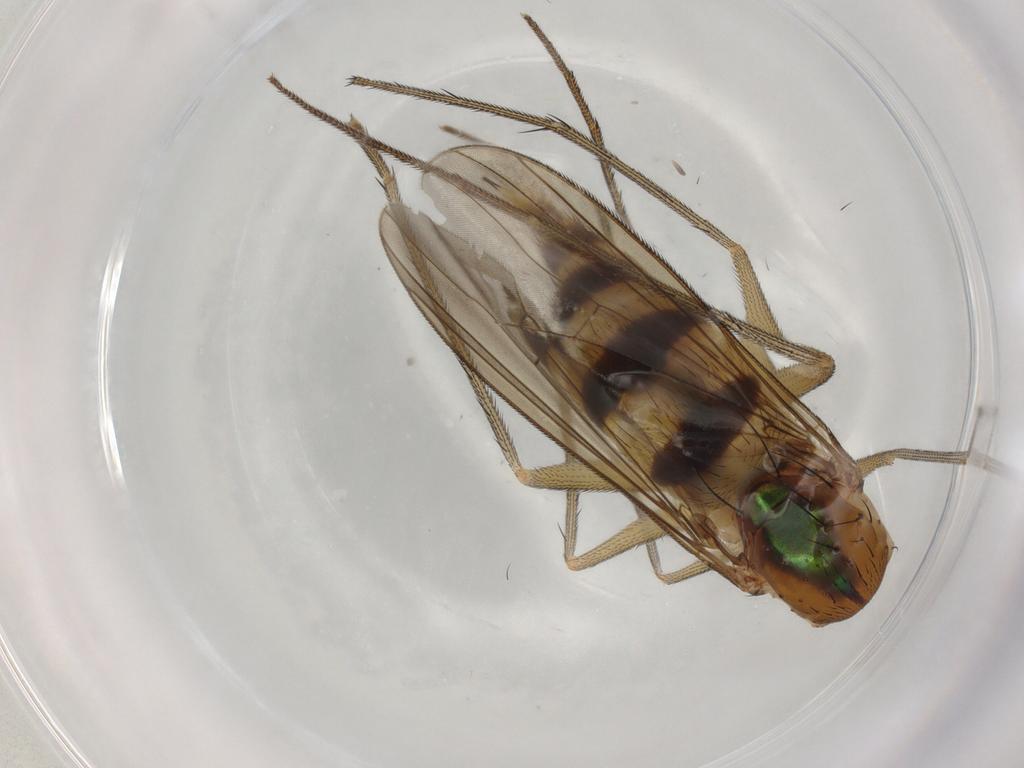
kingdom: Animalia
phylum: Arthropoda
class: Insecta
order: Diptera
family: Dolichopodidae
